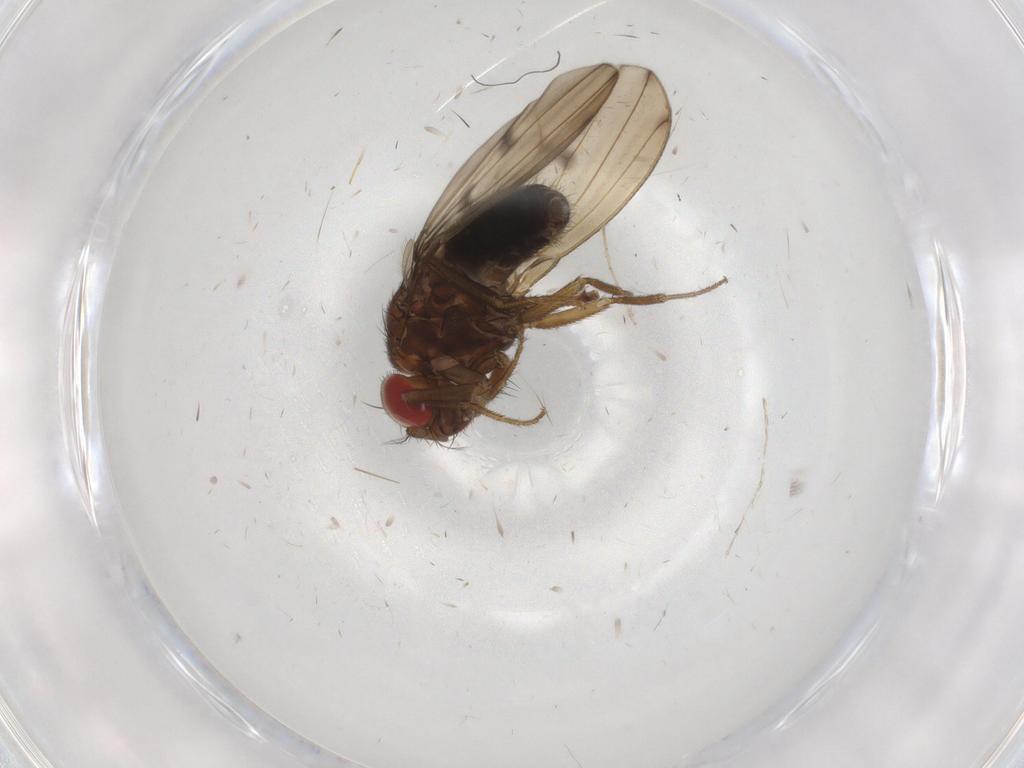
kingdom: Animalia
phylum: Arthropoda
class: Insecta
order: Diptera
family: Drosophilidae
